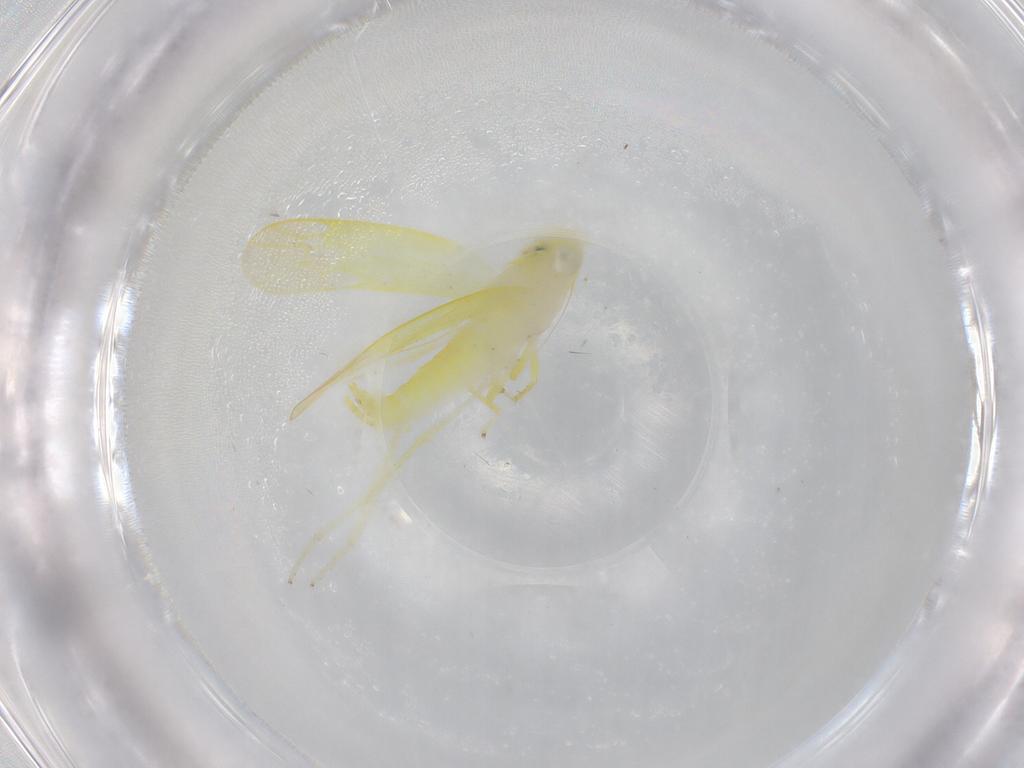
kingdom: Animalia
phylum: Arthropoda
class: Insecta
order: Hemiptera
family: Cicadellidae
